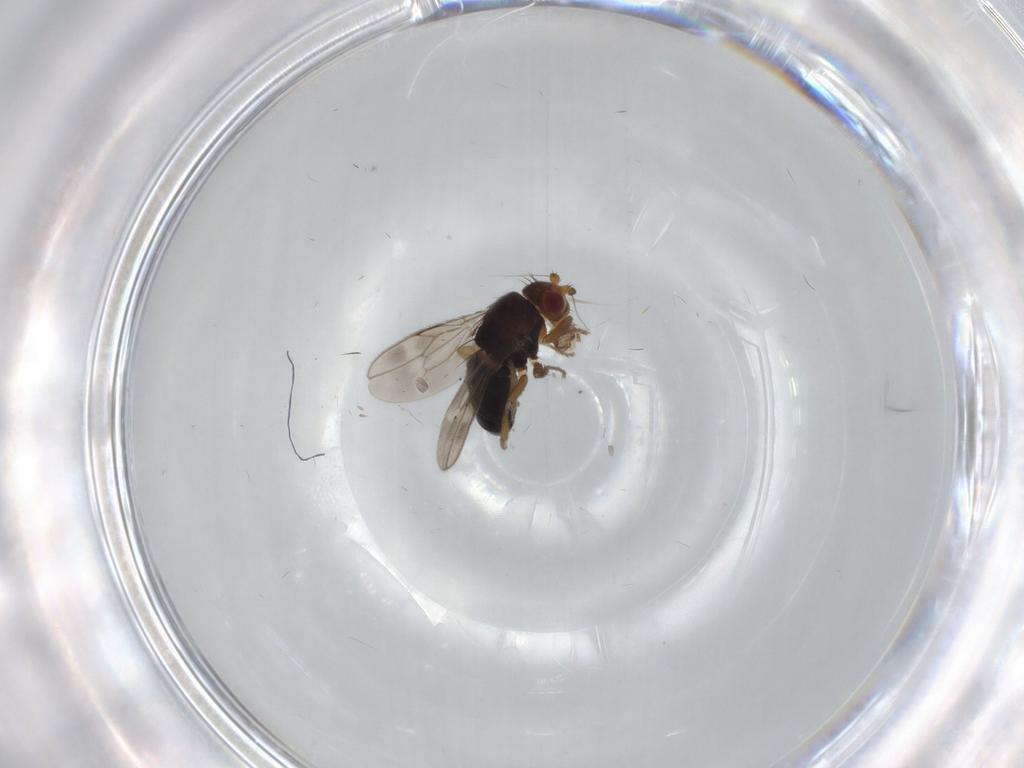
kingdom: Animalia
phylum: Arthropoda
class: Insecta
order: Diptera
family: Sphaeroceridae
